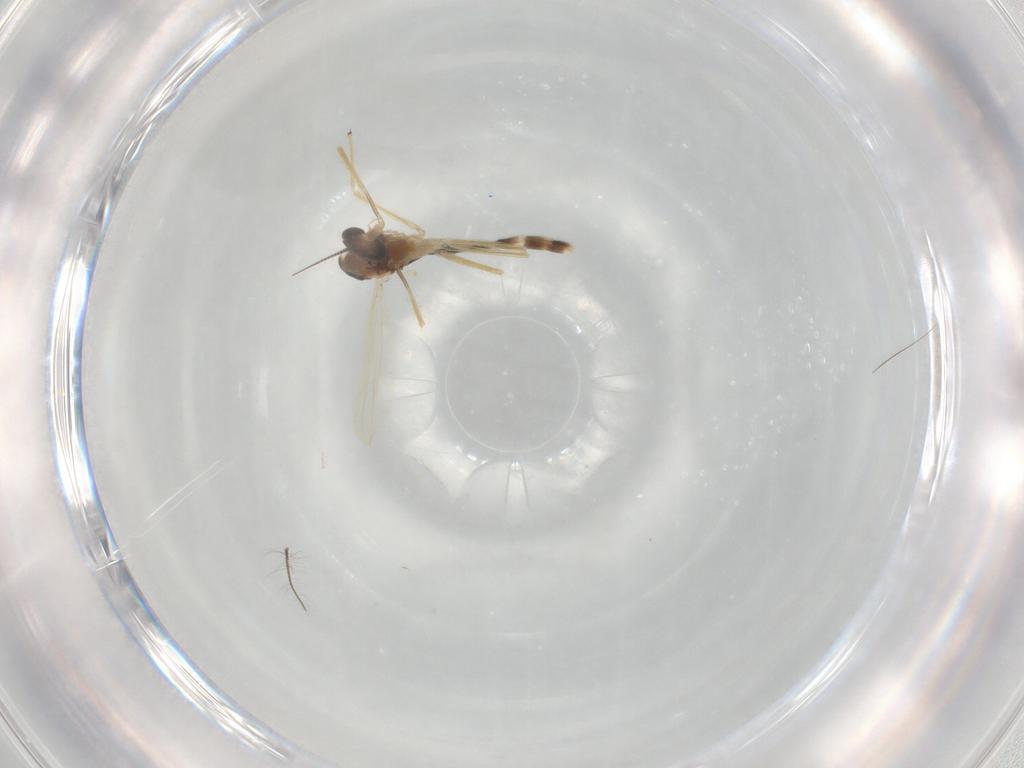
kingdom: Animalia
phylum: Arthropoda
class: Insecta
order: Diptera
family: Chironomidae
